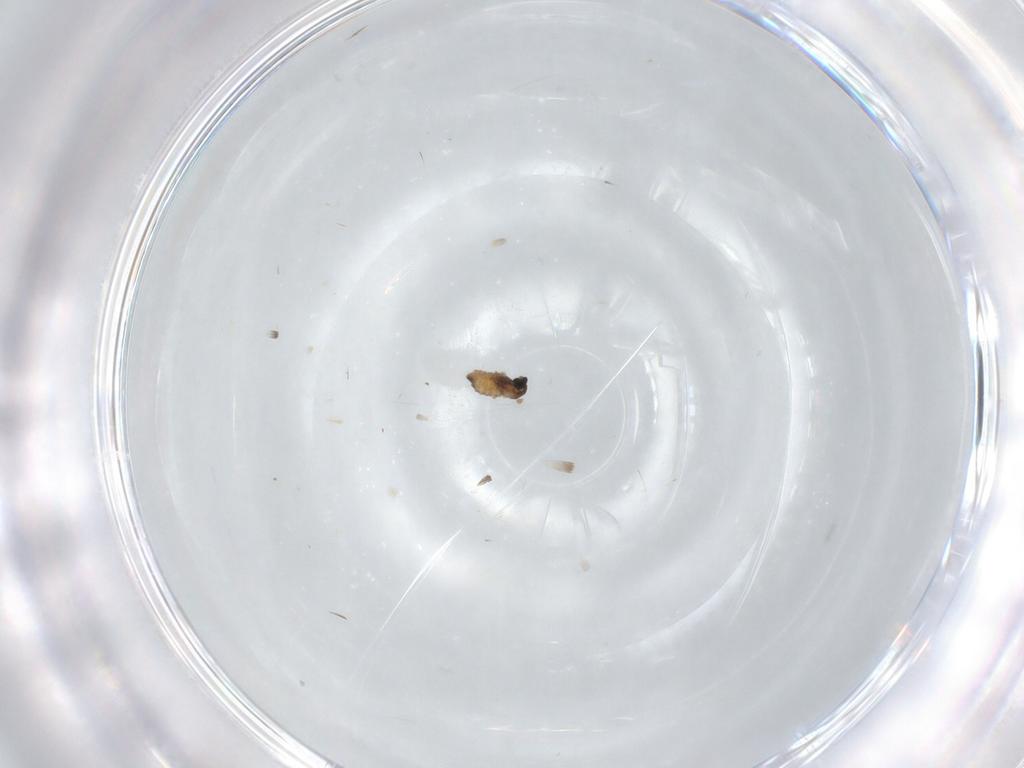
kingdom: Animalia
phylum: Arthropoda
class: Insecta
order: Diptera
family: Cecidomyiidae
